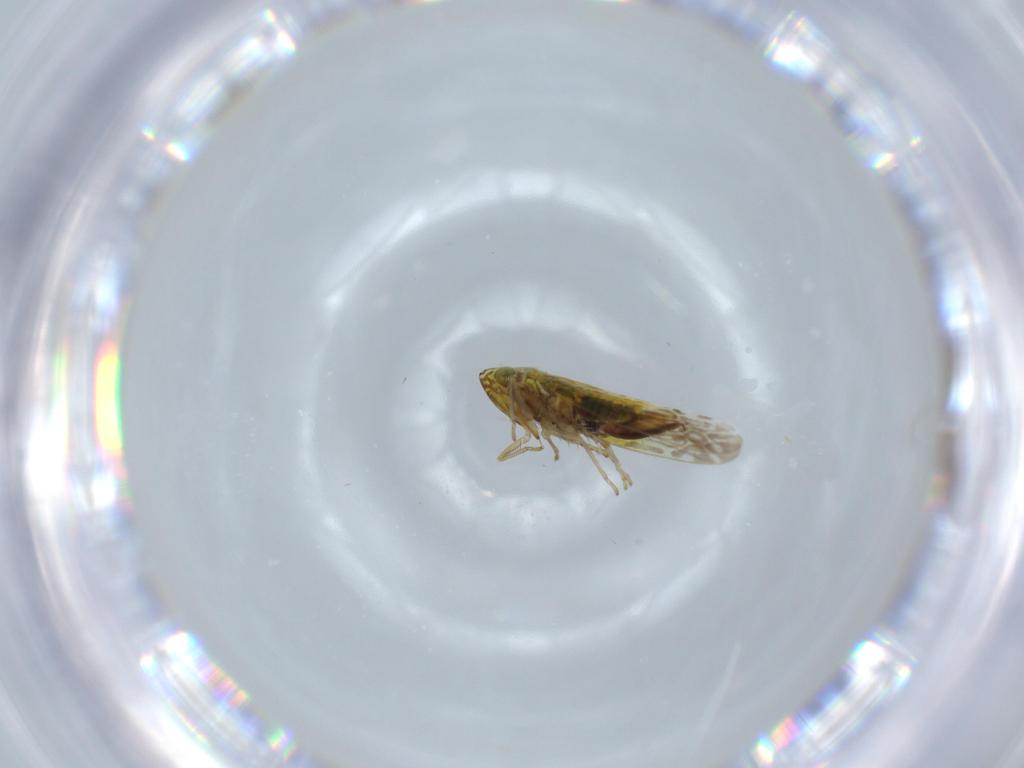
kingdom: Animalia
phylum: Arthropoda
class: Insecta
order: Hemiptera
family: Cicadellidae
